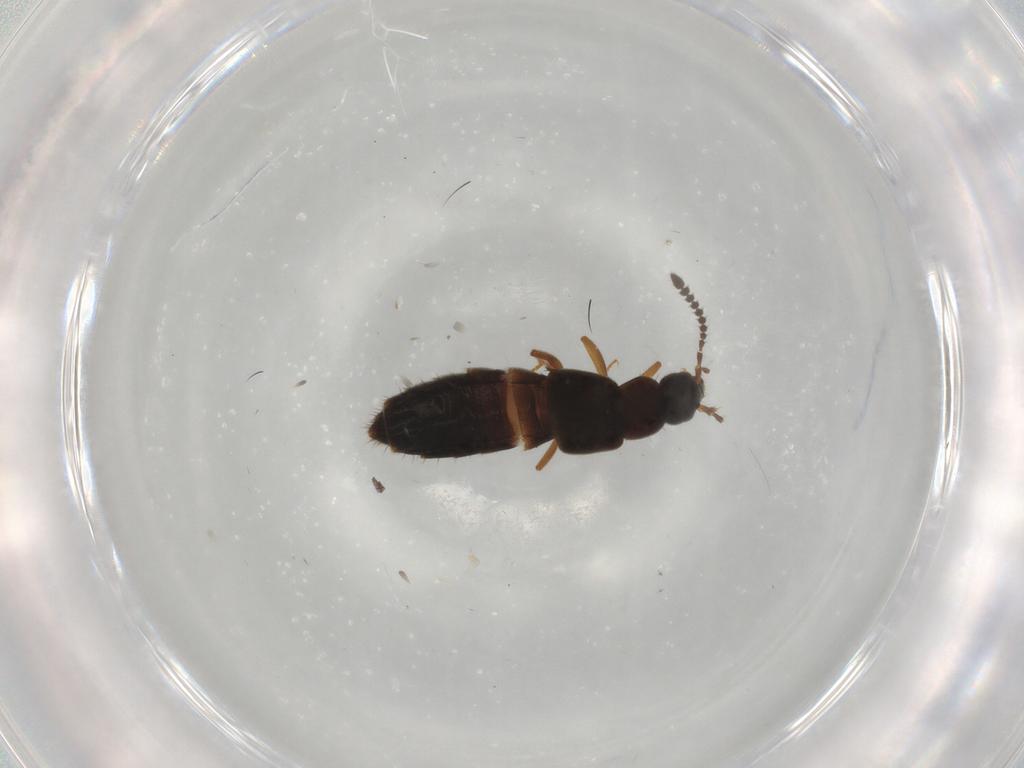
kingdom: Animalia
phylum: Arthropoda
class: Insecta
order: Coleoptera
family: Staphylinidae
